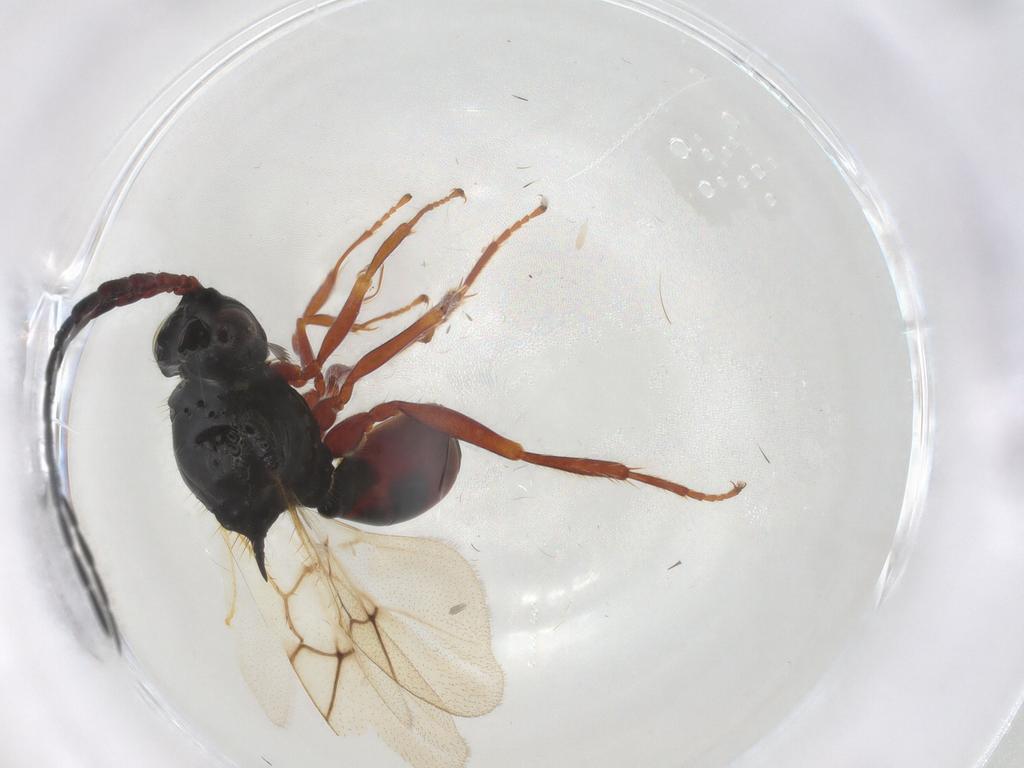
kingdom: Animalia
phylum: Arthropoda
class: Insecta
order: Hymenoptera
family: Figitidae
